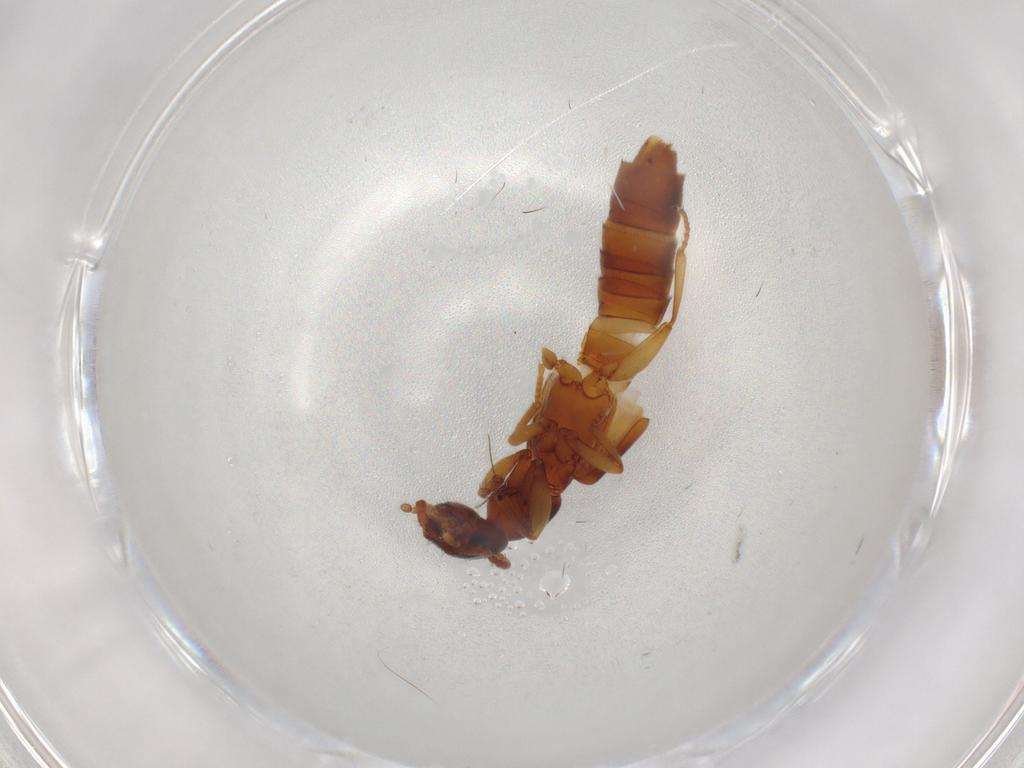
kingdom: Animalia
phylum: Arthropoda
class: Insecta
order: Coleoptera
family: Staphylinidae
